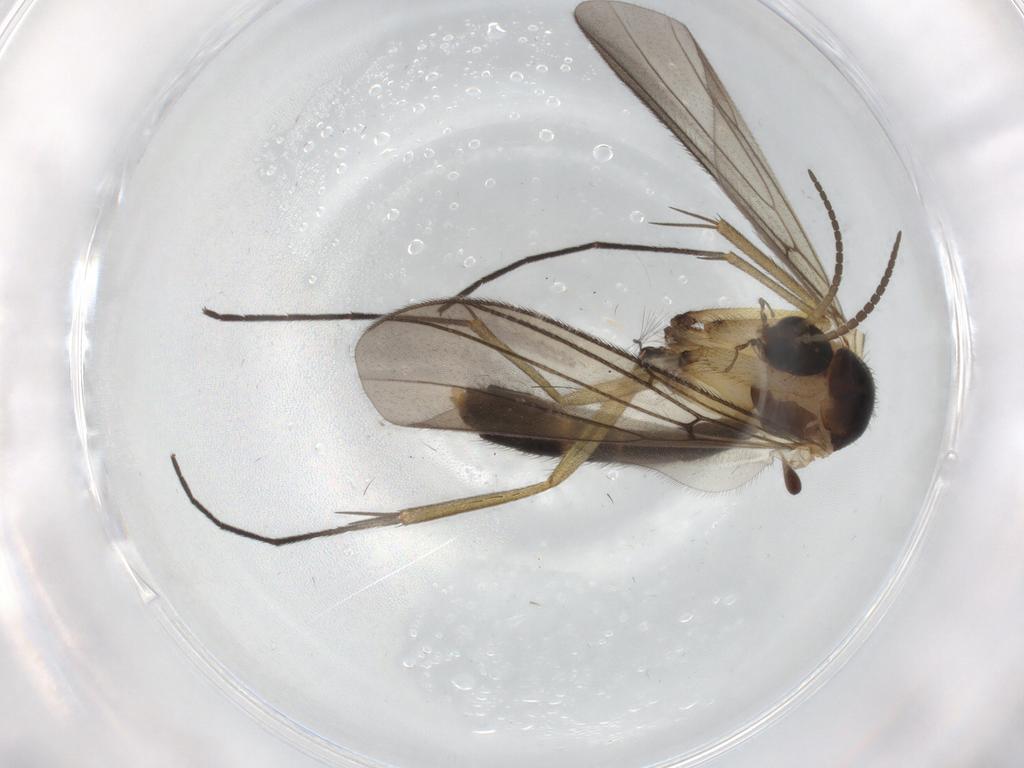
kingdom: Animalia
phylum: Arthropoda
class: Insecta
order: Diptera
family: Mycetophilidae
